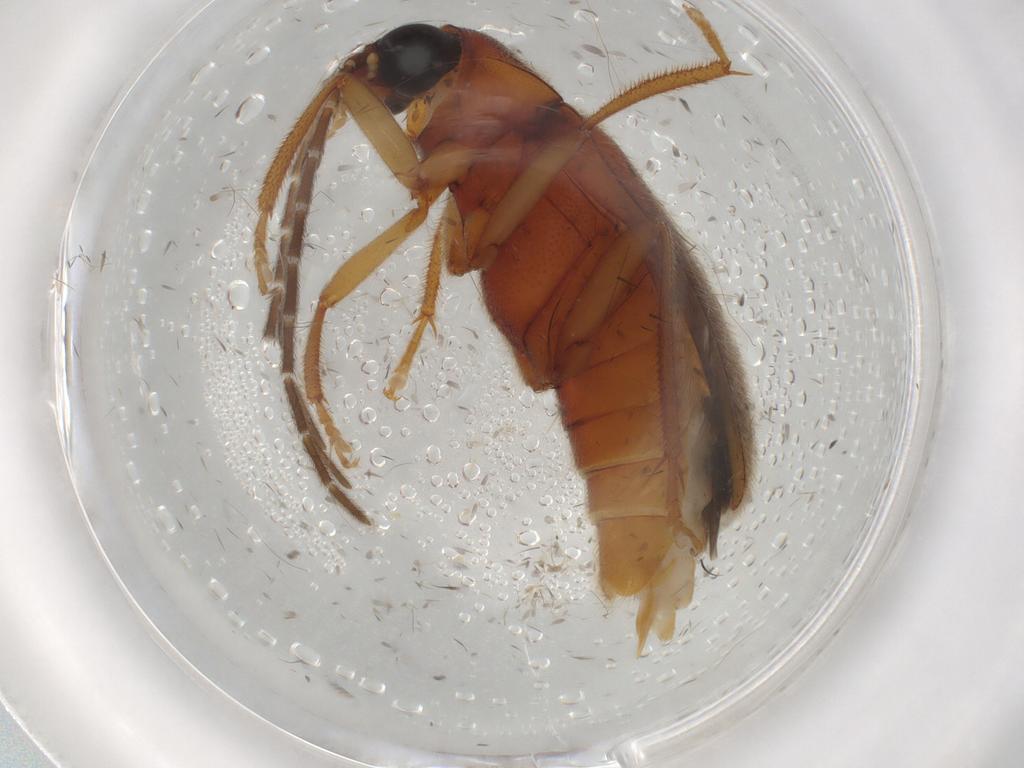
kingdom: Animalia
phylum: Arthropoda
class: Insecta
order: Coleoptera
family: Ptilodactylidae
